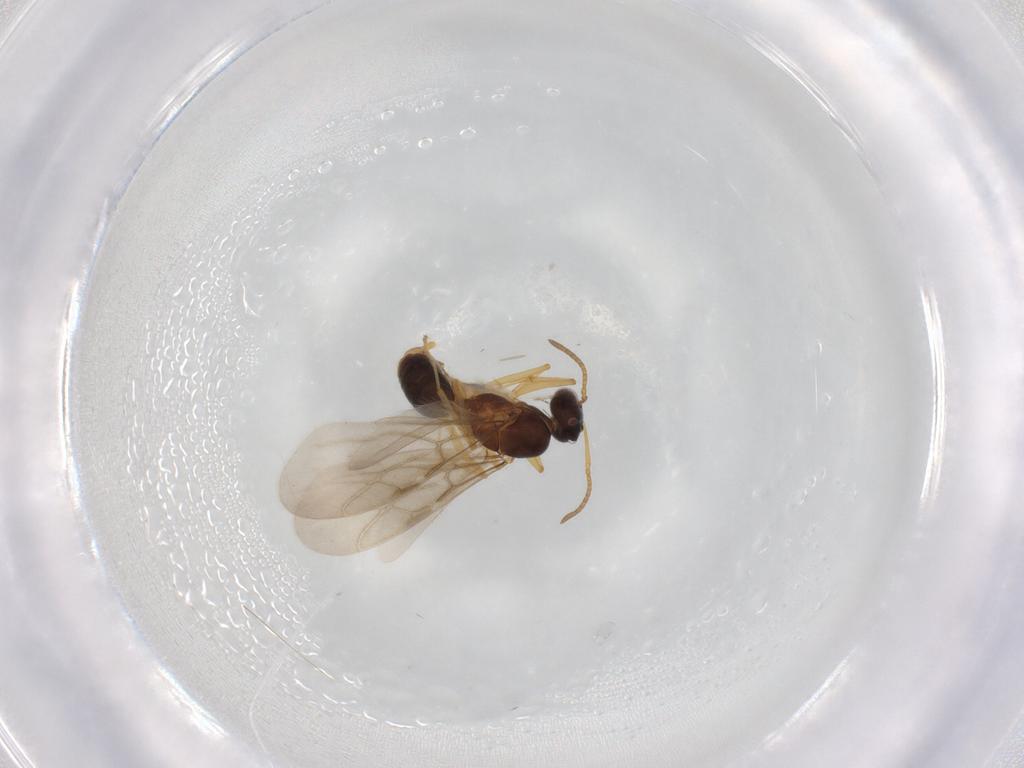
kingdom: Animalia
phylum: Arthropoda
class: Insecta
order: Hymenoptera
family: Formicidae
